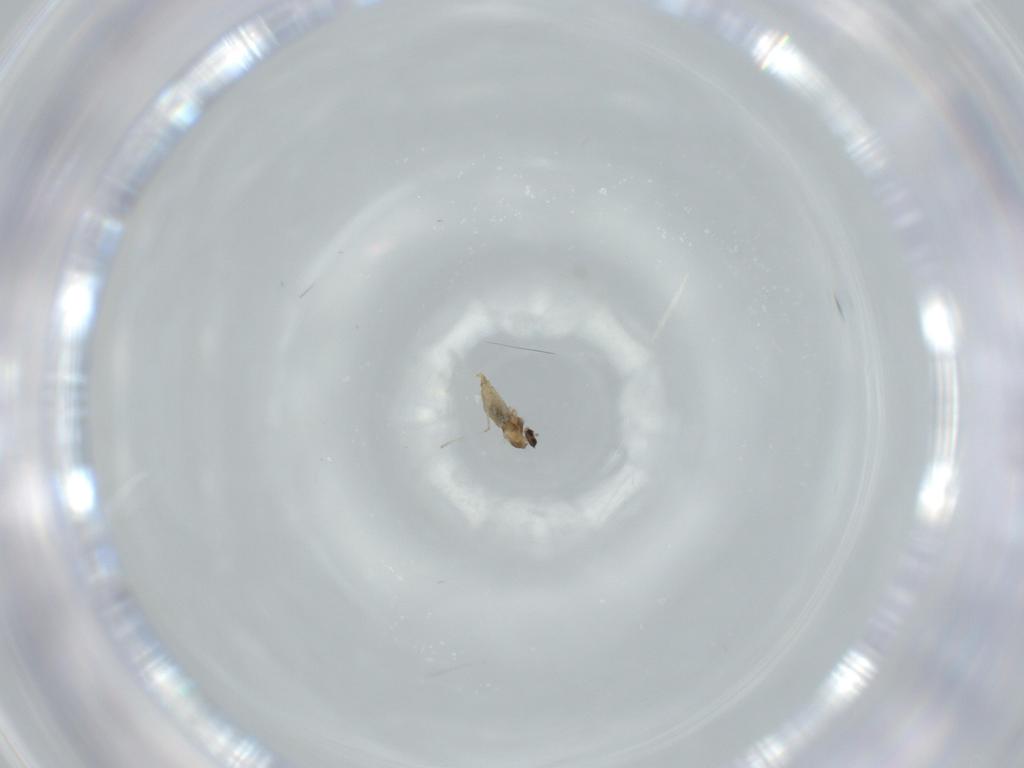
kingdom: Animalia
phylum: Arthropoda
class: Insecta
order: Diptera
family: Cecidomyiidae
